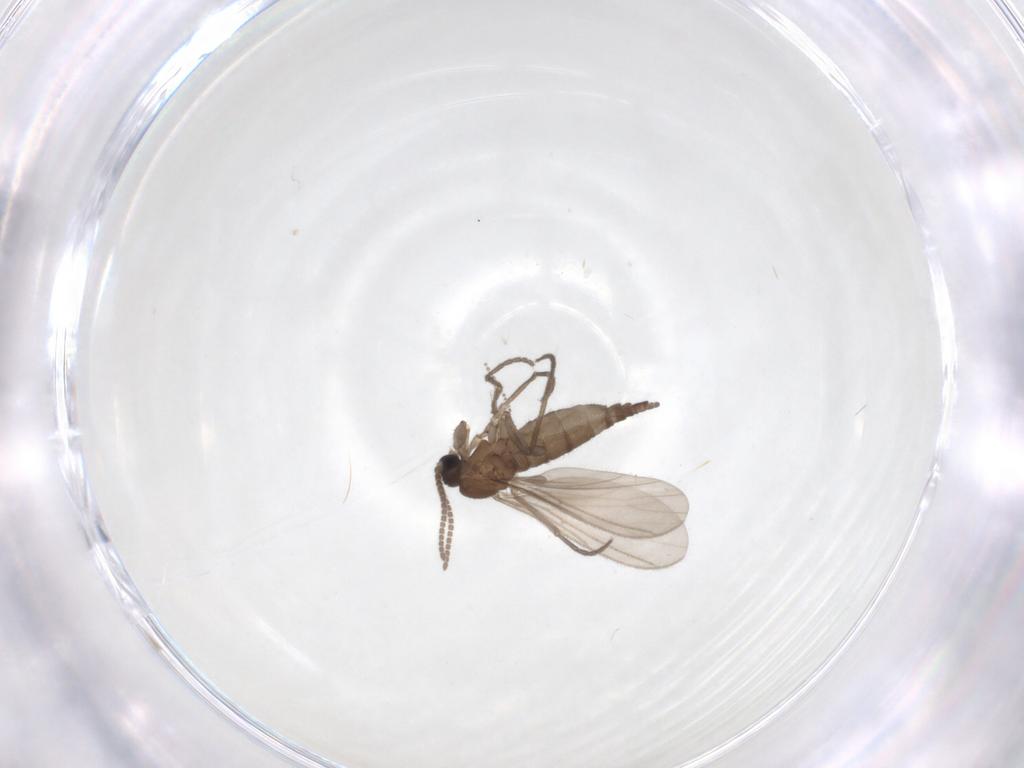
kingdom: Animalia
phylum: Arthropoda
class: Insecta
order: Diptera
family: Sciaridae
